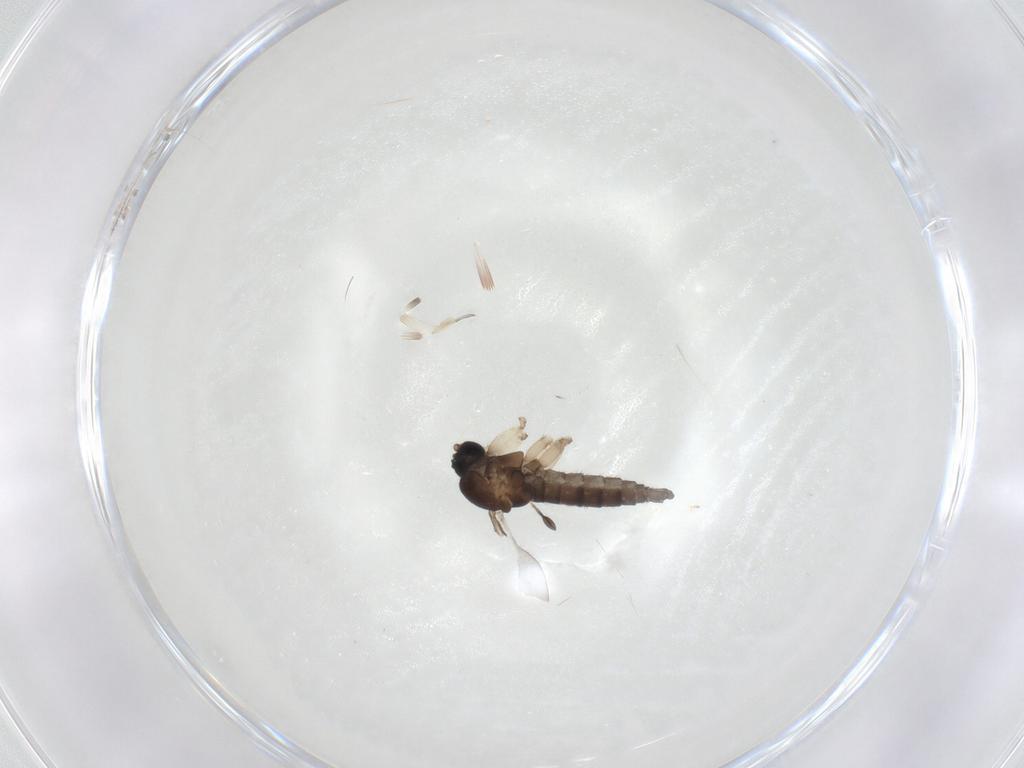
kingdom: Animalia
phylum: Arthropoda
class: Insecta
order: Diptera
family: Sciaridae
